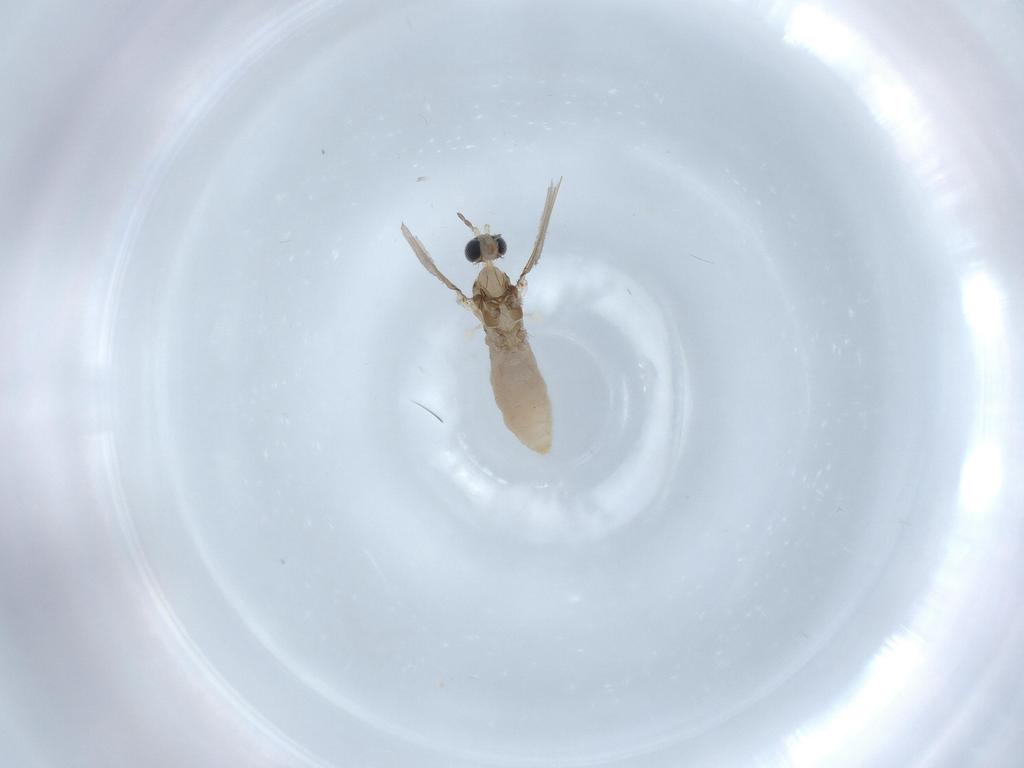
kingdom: Animalia
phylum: Arthropoda
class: Insecta
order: Diptera
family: Cecidomyiidae
